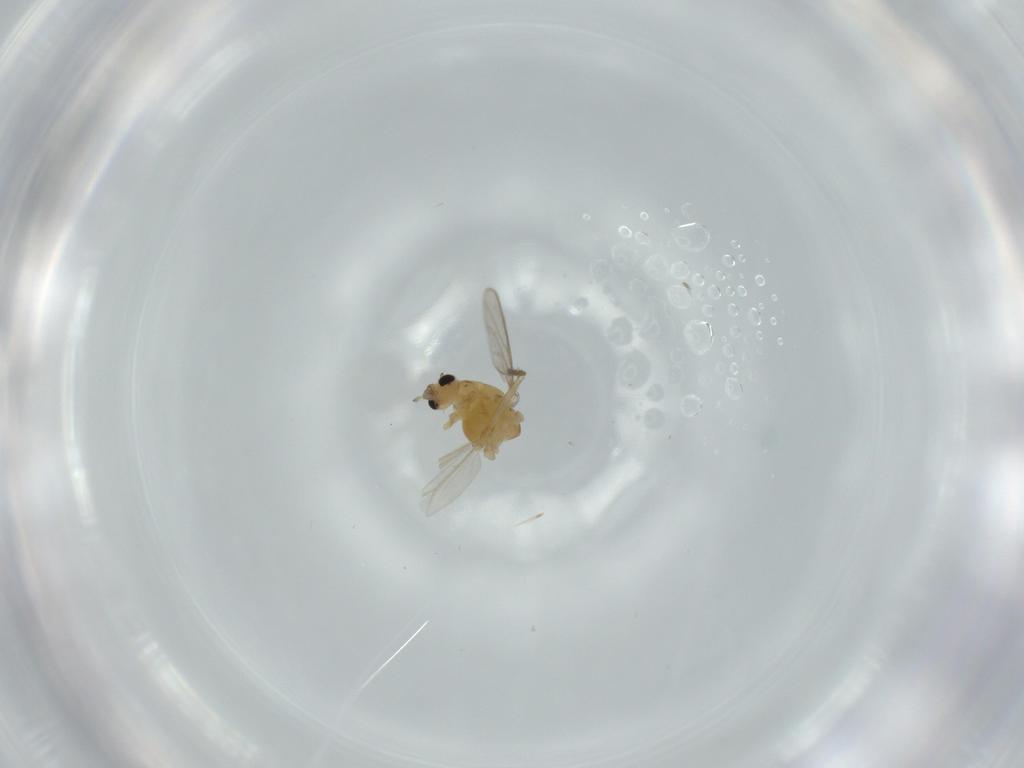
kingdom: Animalia
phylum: Arthropoda
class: Insecta
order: Diptera
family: Chironomidae
